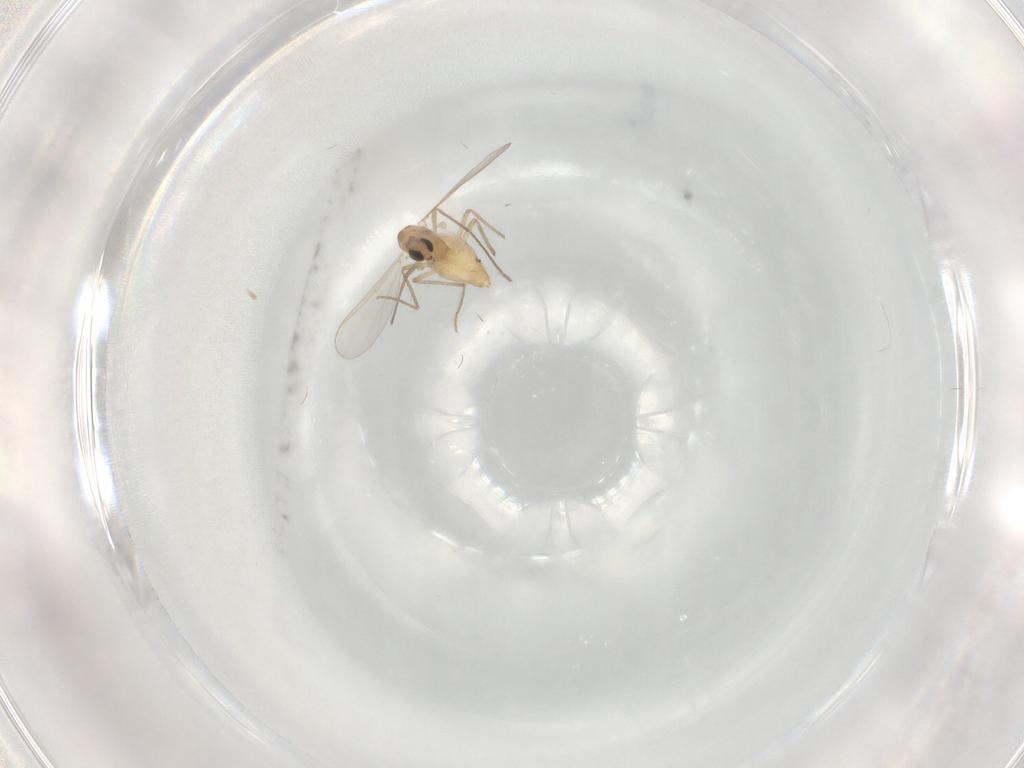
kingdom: Animalia
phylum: Arthropoda
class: Insecta
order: Diptera
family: Chironomidae
